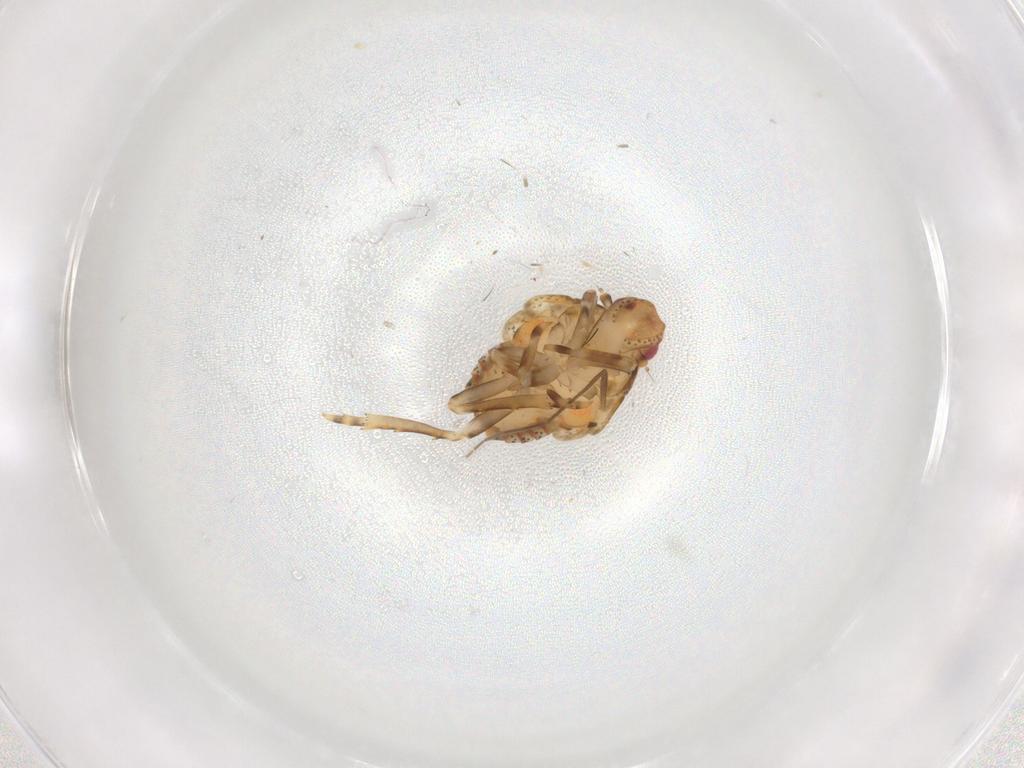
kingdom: Animalia
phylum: Arthropoda
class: Insecta
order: Hemiptera
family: Flatidae
